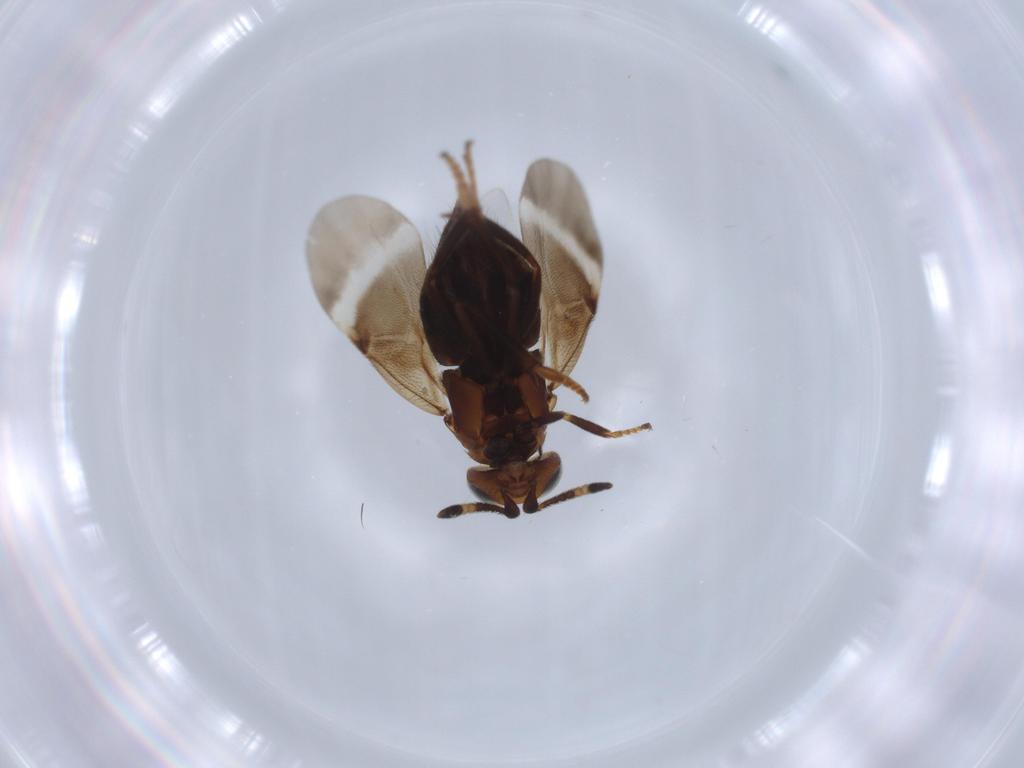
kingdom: Animalia
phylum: Arthropoda
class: Insecta
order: Hymenoptera
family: Encyrtidae
